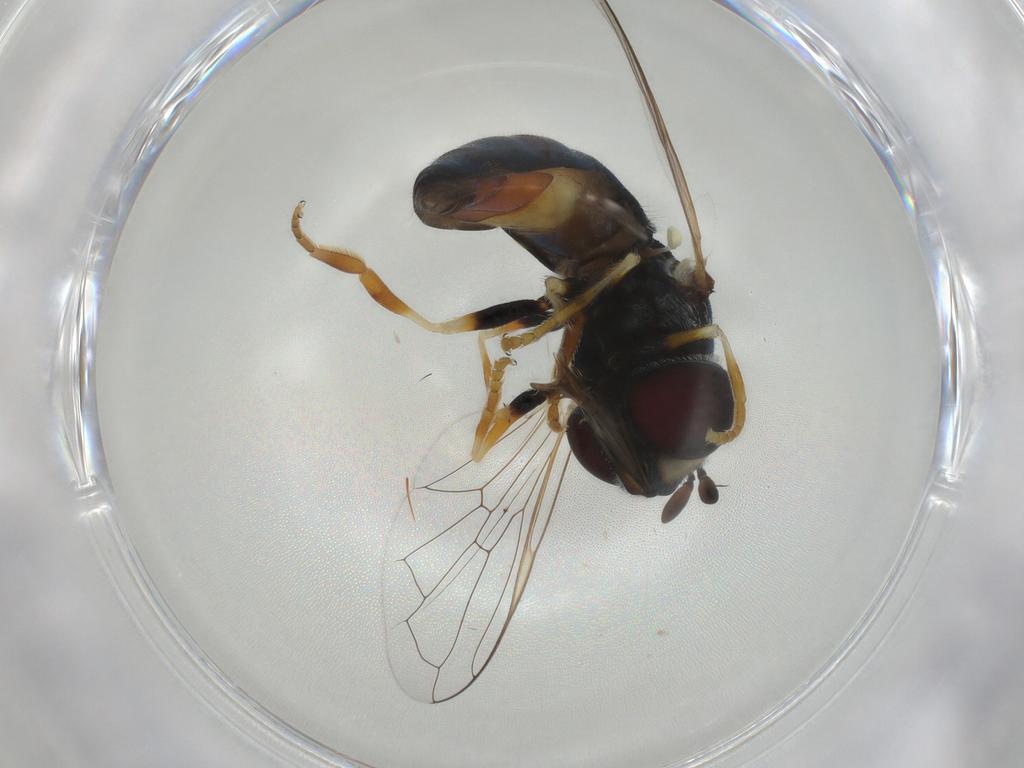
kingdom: Animalia
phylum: Arthropoda
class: Insecta
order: Diptera
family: Syrphidae
